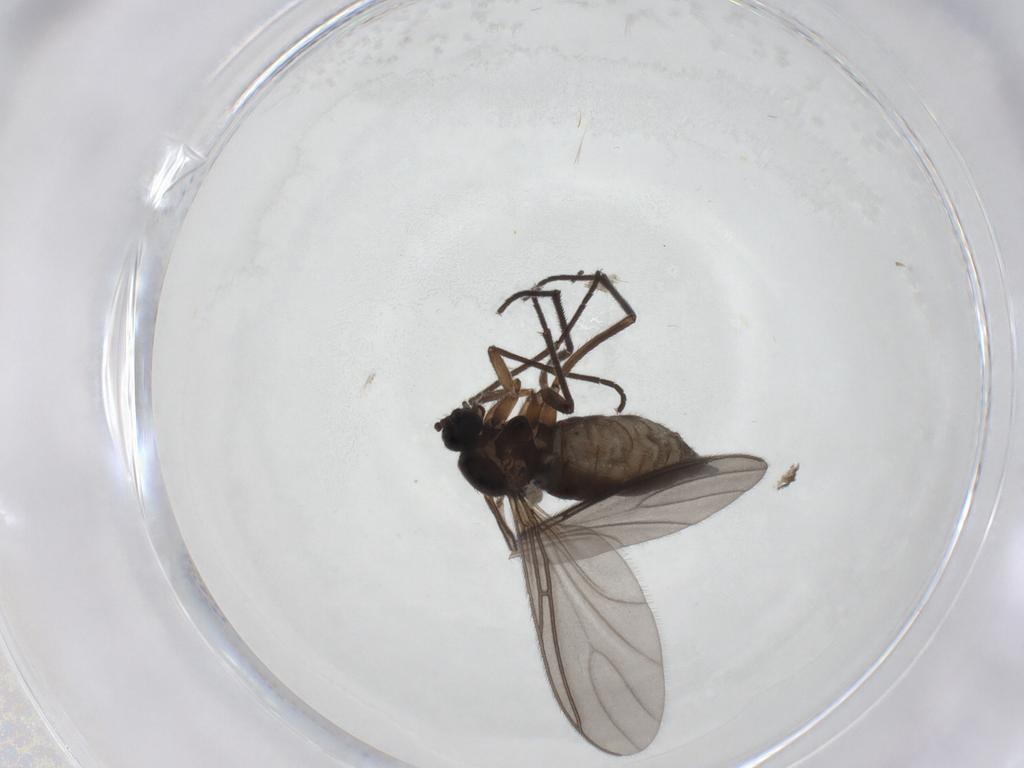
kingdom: Animalia
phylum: Arthropoda
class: Insecta
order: Diptera
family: Sciaridae
